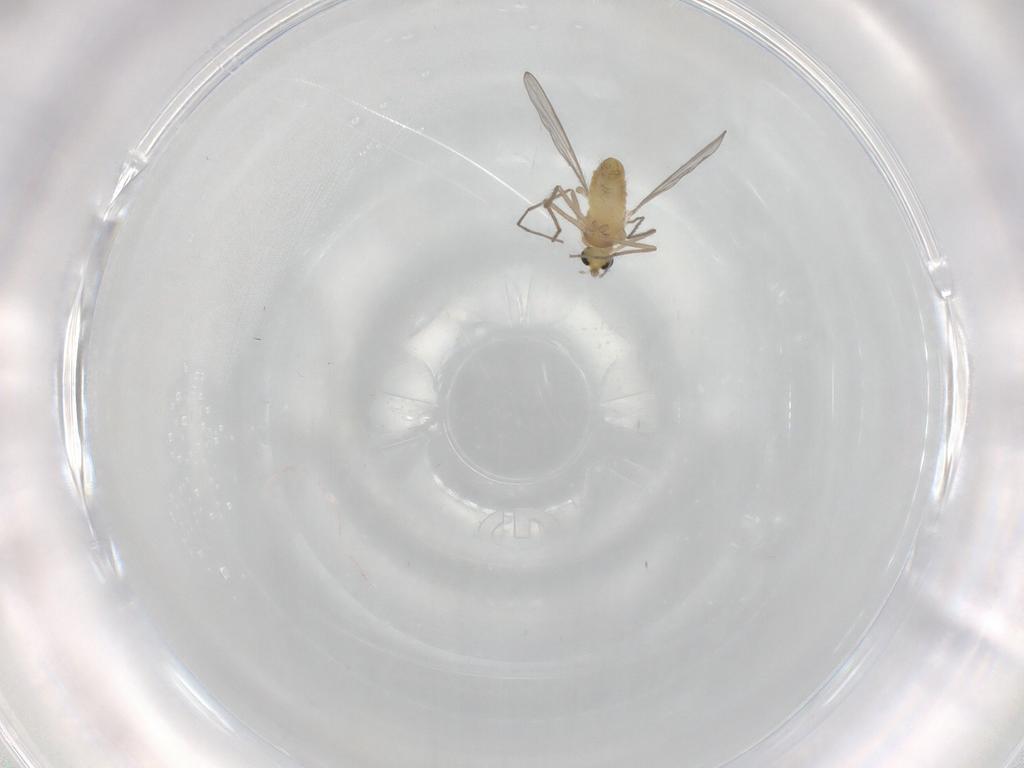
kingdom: Animalia
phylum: Arthropoda
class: Insecta
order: Diptera
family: Chironomidae
